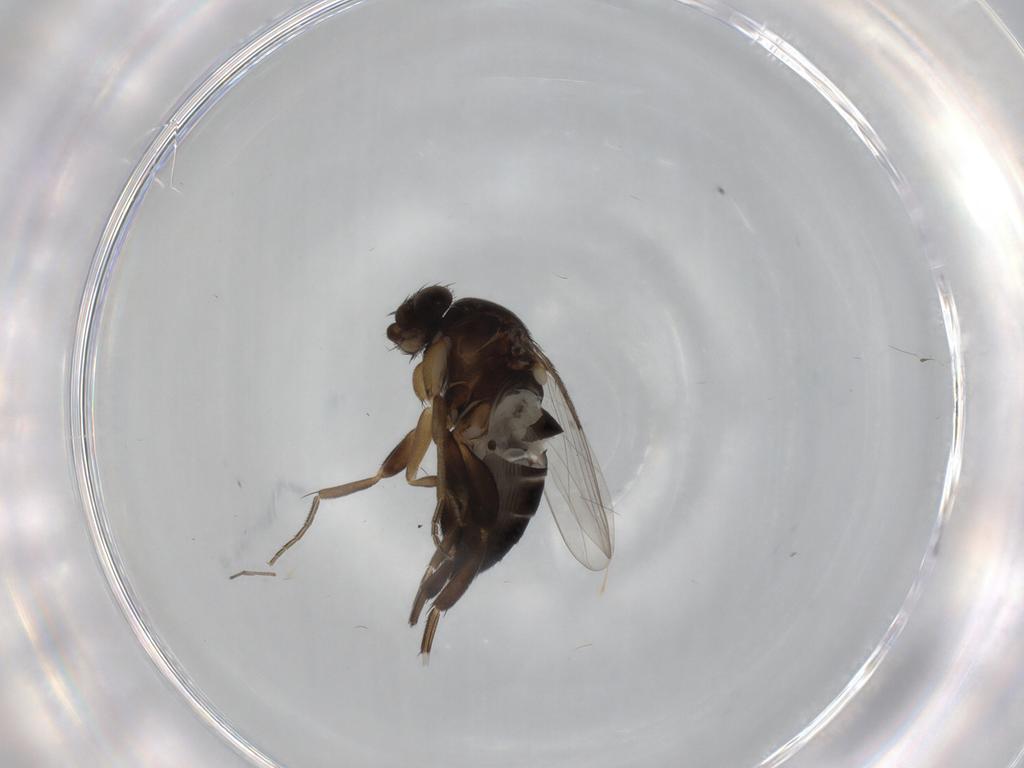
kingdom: Animalia
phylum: Arthropoda
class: Insecta
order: Diptera
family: Phoridae
